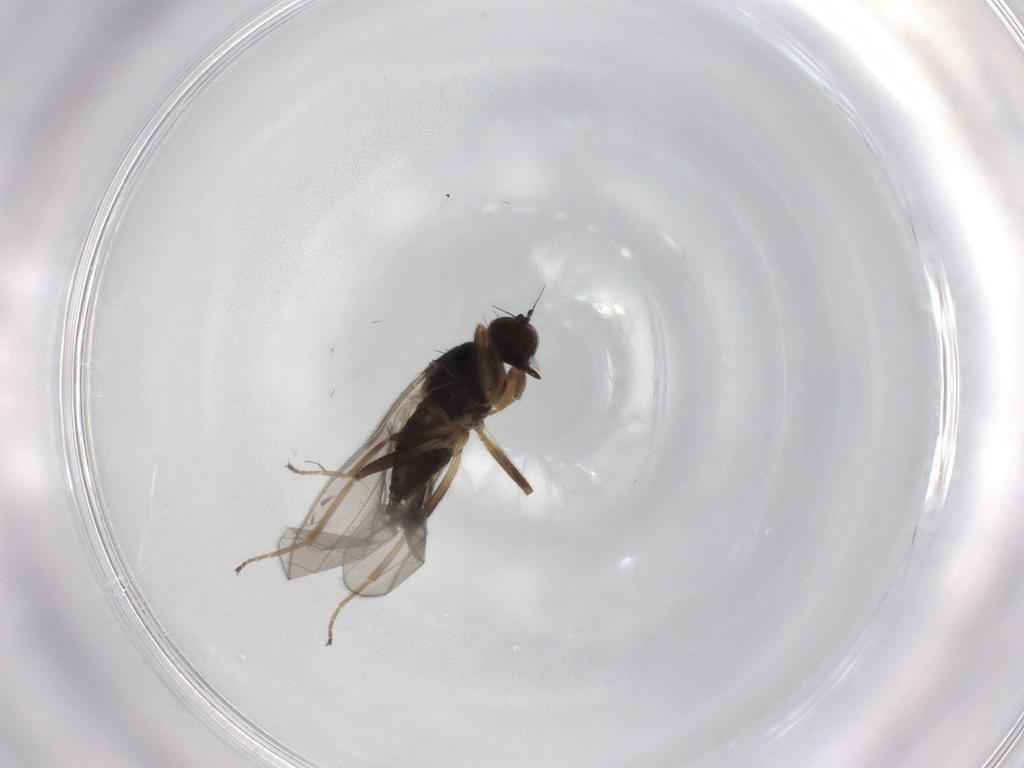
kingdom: Animalia
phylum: Arthropoda
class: Insecta
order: Diptera
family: Hybotidae
